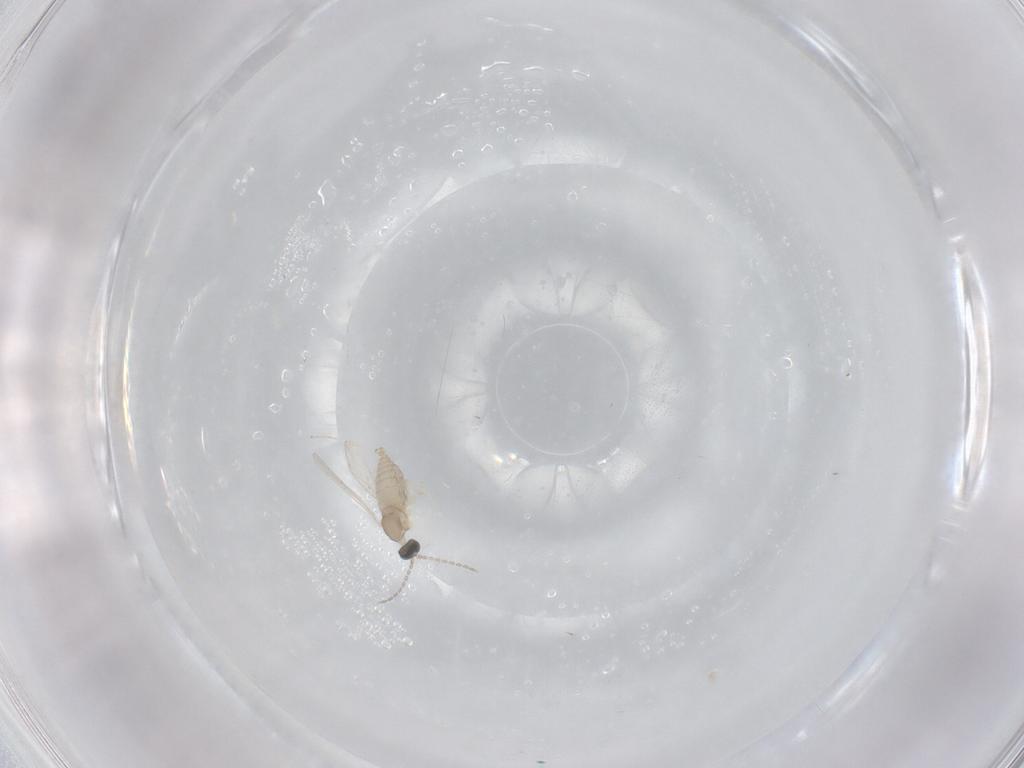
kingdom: Animalia
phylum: Arthropoda
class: Insecta
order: Diptera
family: Cecidomyiidae
